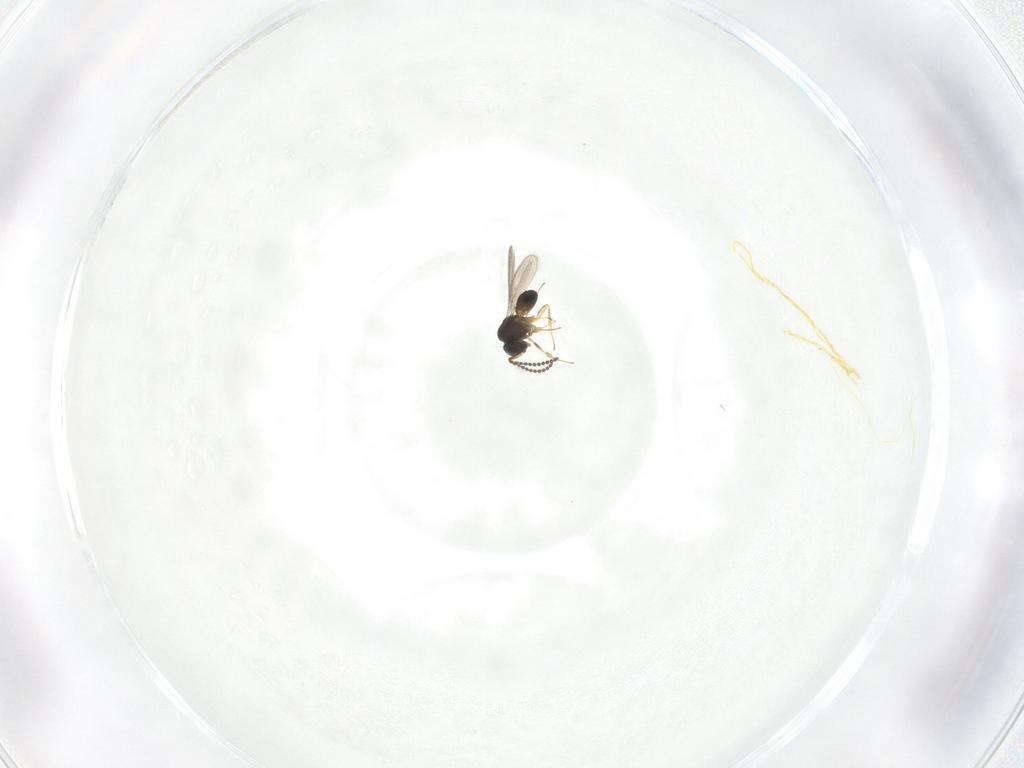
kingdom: Animalia
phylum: Arthropoda
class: Insecta
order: Hymenoptera
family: Scelionidae
